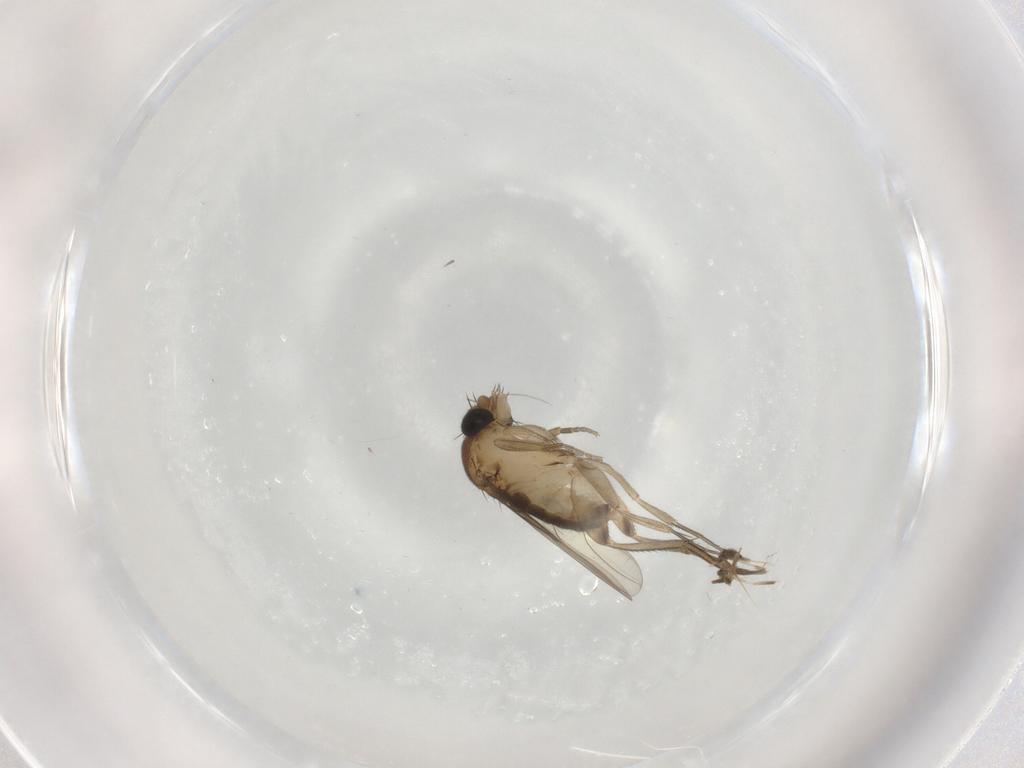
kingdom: Animalia
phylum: Arthropoda
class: Insecta
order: Diptera
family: Phoridae
